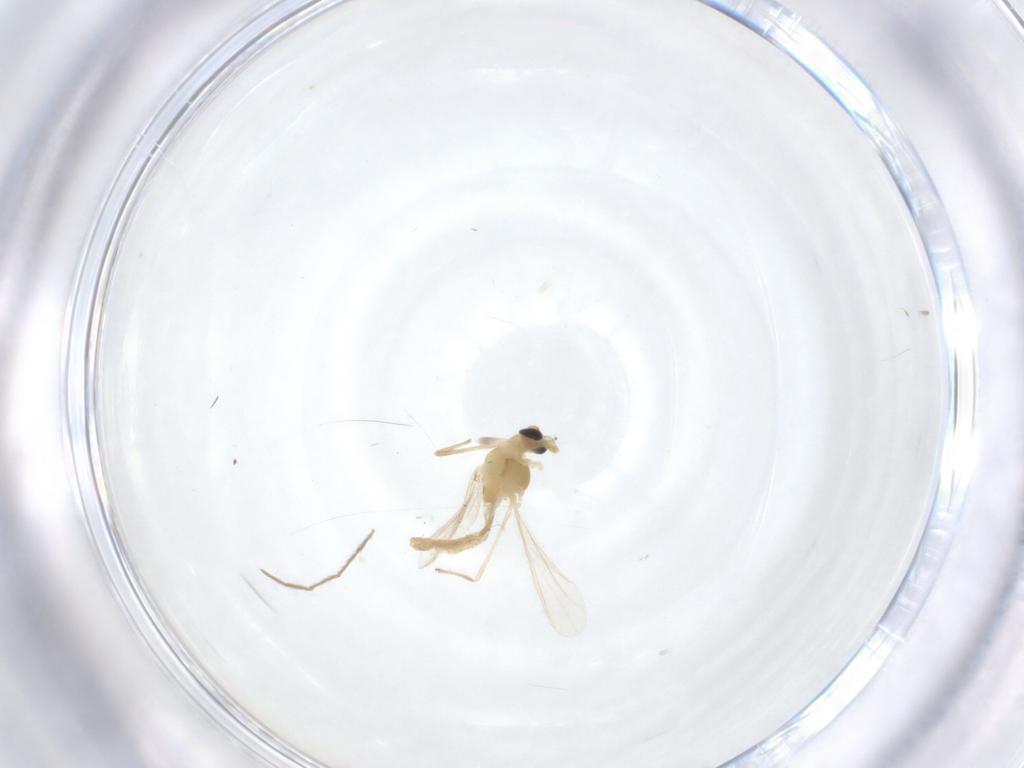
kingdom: Animalia
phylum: Arthropoda
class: Insecta
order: Diptera
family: Chironomidae
